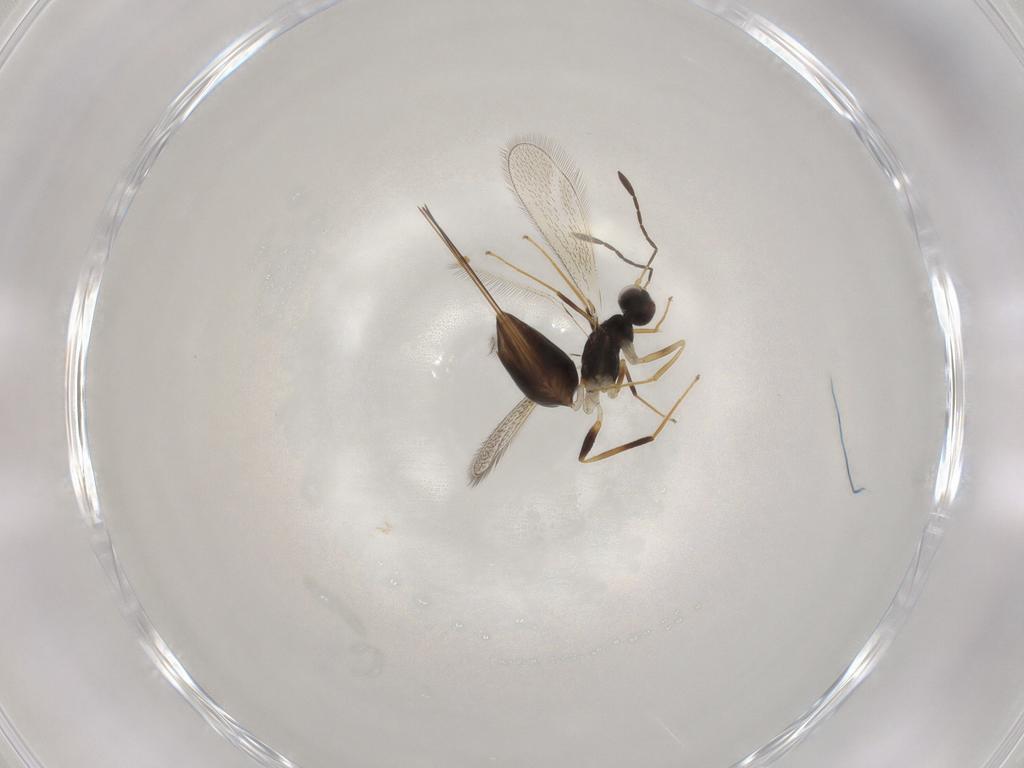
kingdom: Animalia
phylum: Arthropoda
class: Insecta
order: Hymenoptera
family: Mymaridae
